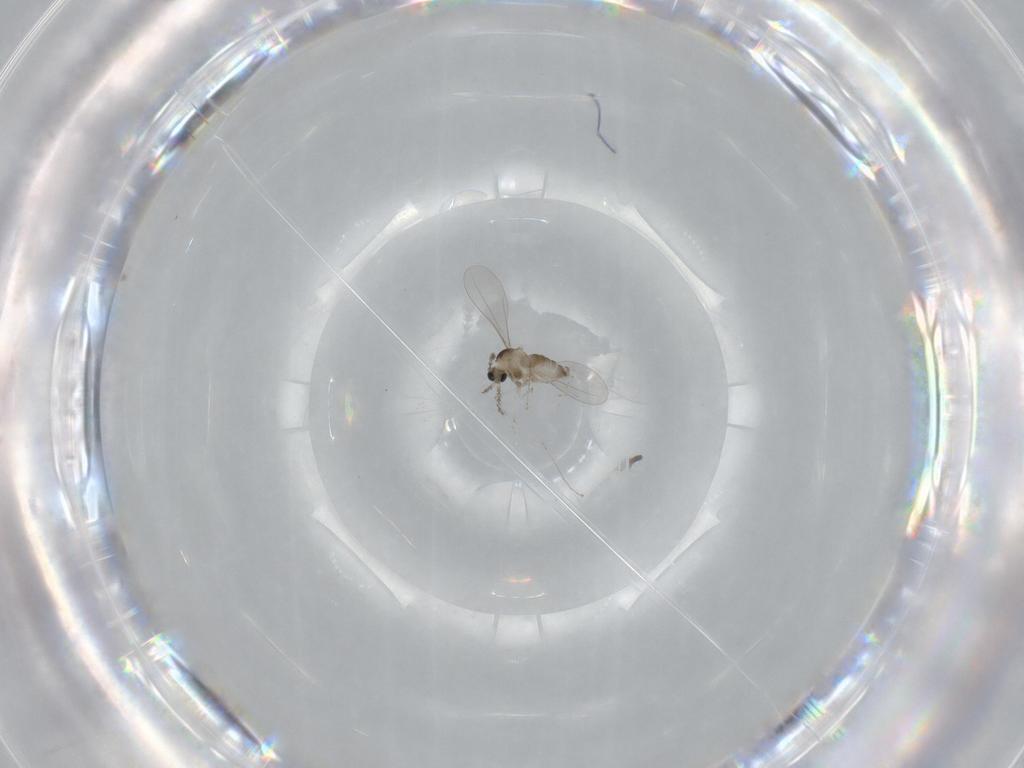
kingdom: Animalia
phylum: Arthropoda
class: Insecta
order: Diptera
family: Cecidomyiidae
